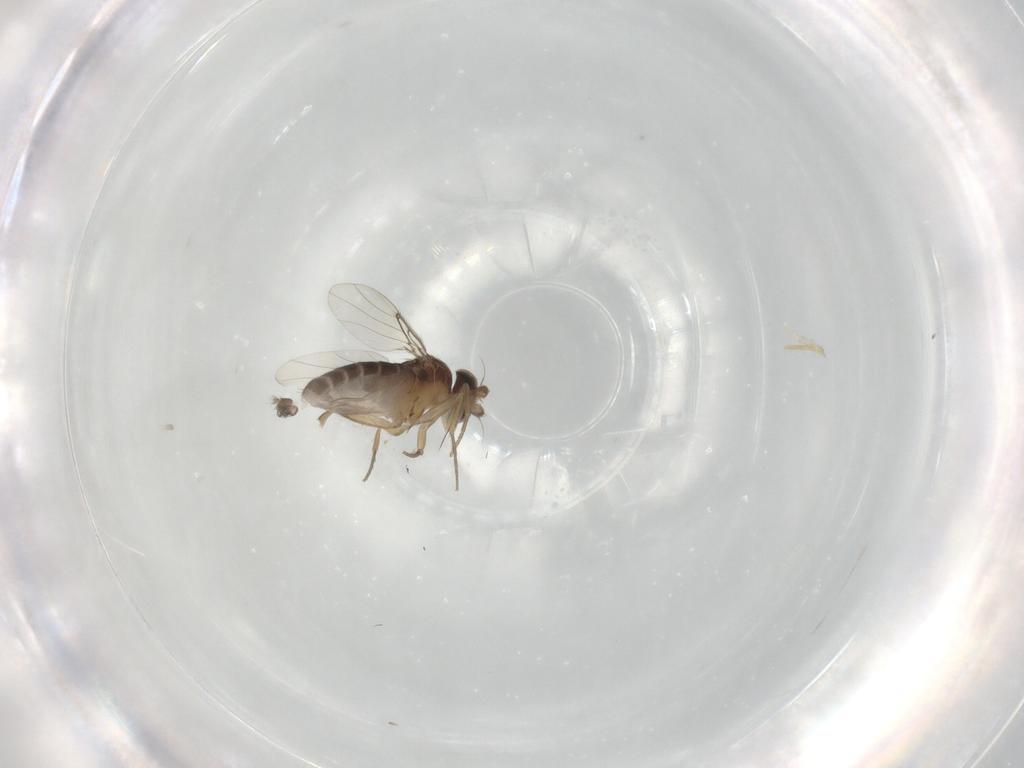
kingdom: Animalia
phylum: Arthropoda
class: Insecta
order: Diptera
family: Phoridae
